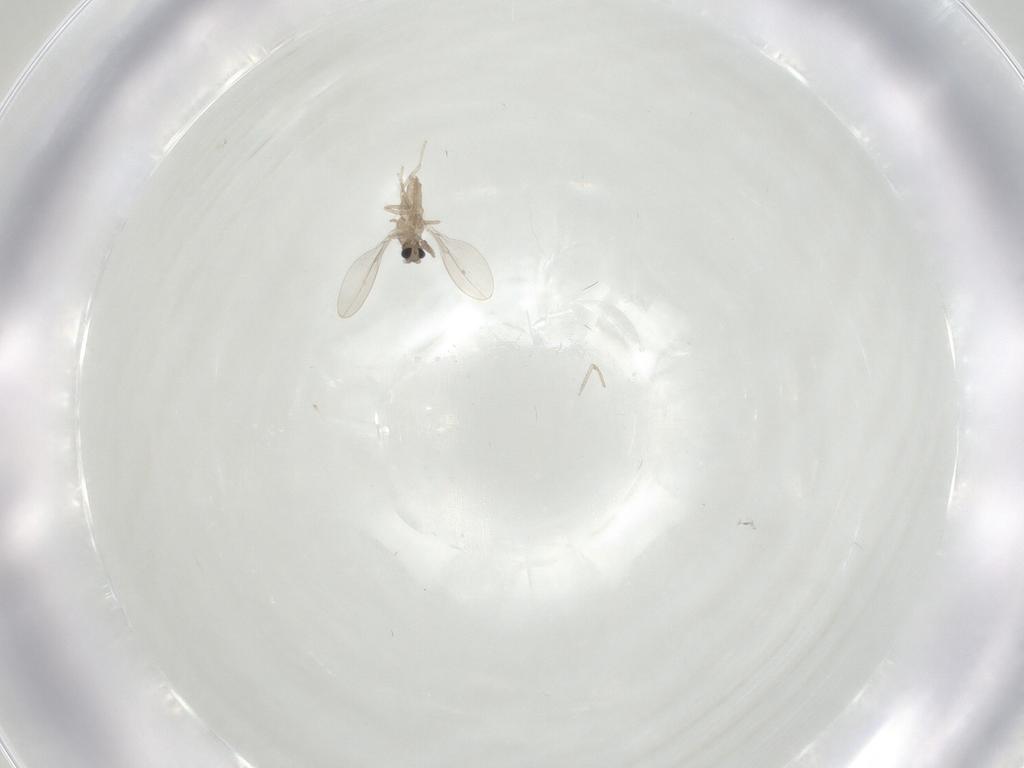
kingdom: Animalia
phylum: Arthropoda
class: Insecta
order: Diptera
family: Cecidomyiidae
